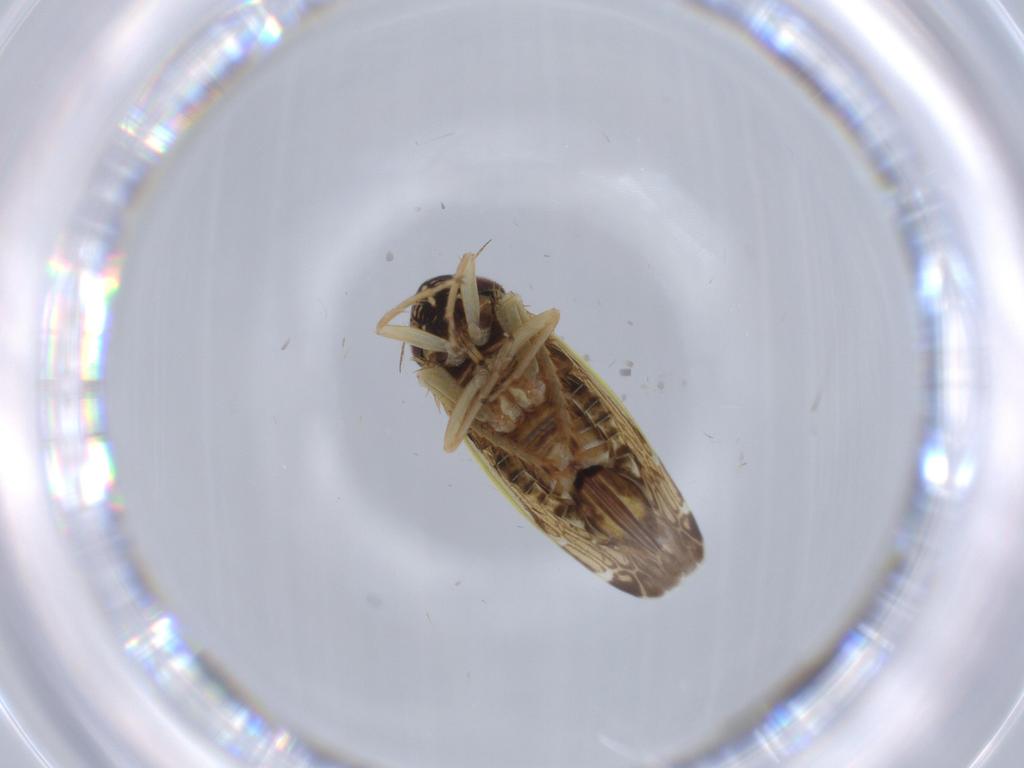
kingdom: Animalia
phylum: Arthropoda
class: Insecta
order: Hemiptera
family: Cicadellidae
